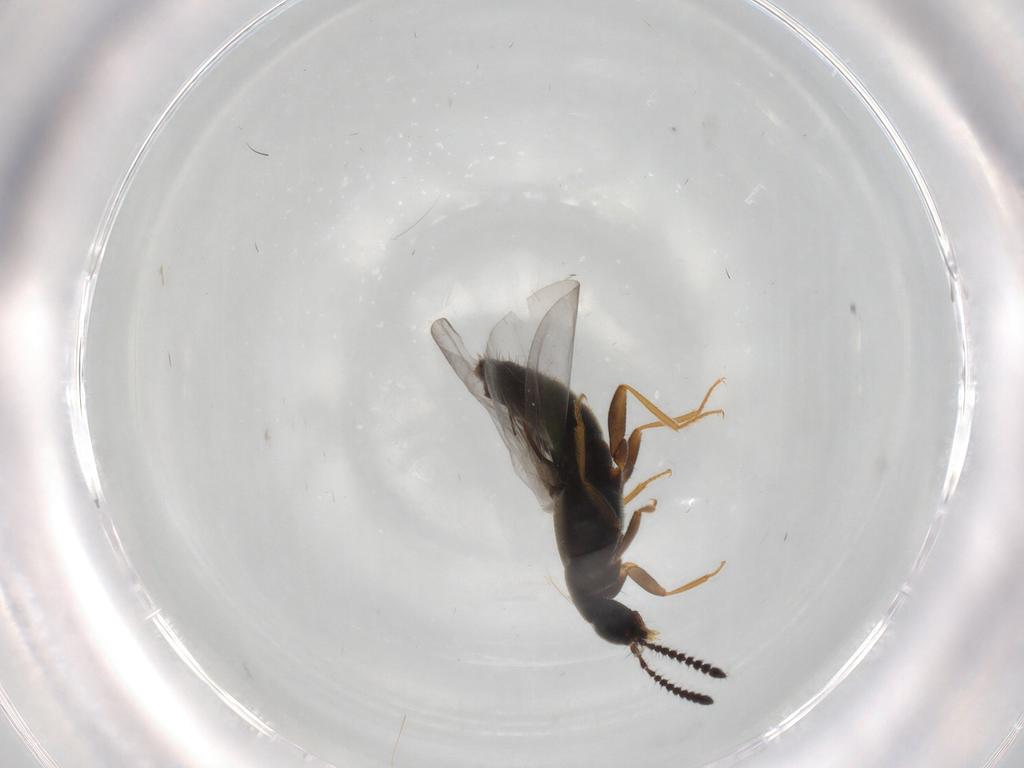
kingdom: Animalia
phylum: Arthropoda
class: Insecta
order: Coleoptera
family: Staphylinidae
